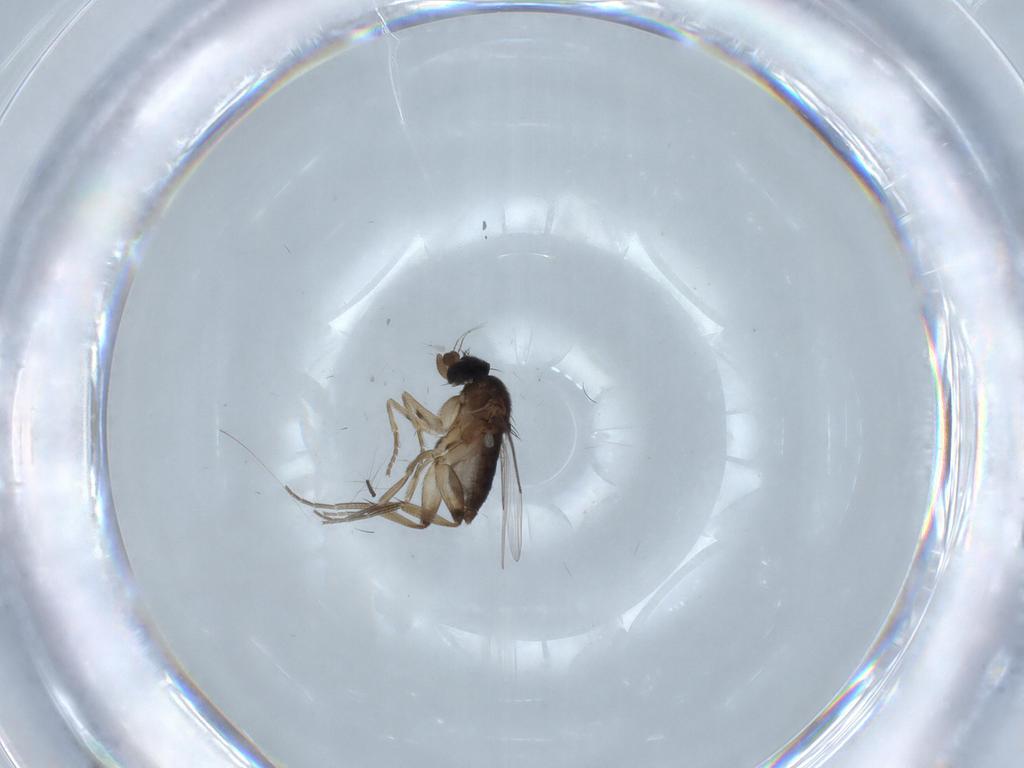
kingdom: Animalia
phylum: Arthropoda
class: Insecta
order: Diptera
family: Phoridae
